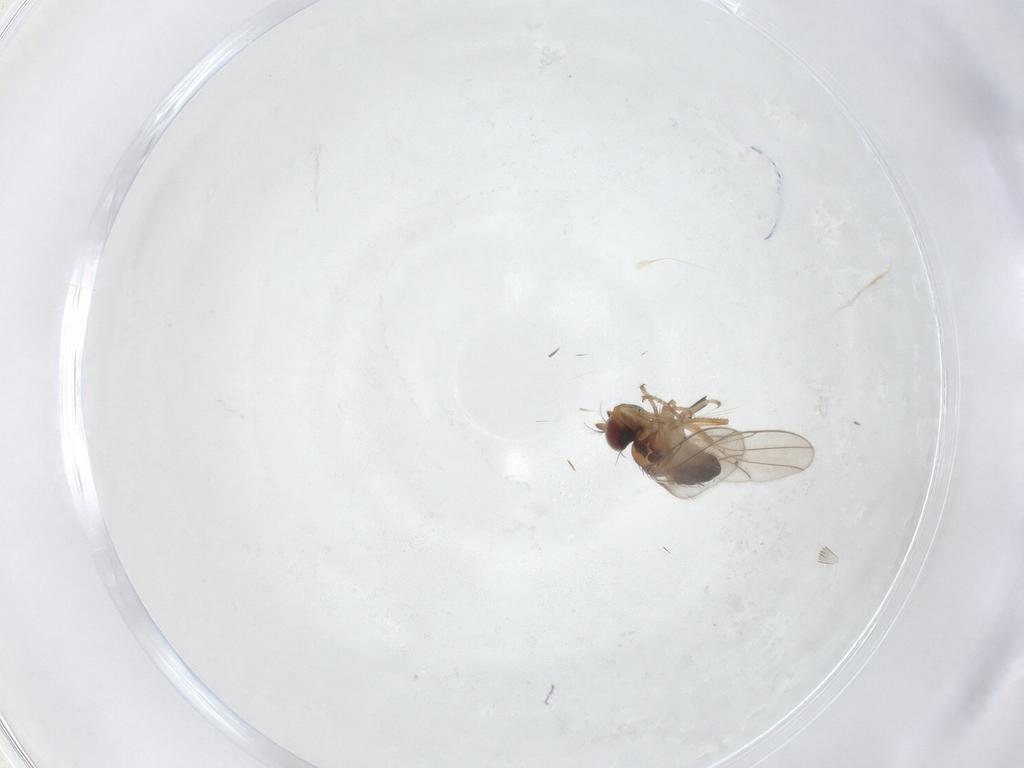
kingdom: Animalia
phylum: Arthropoda
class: Insecta
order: Diptera
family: Ephydridae
